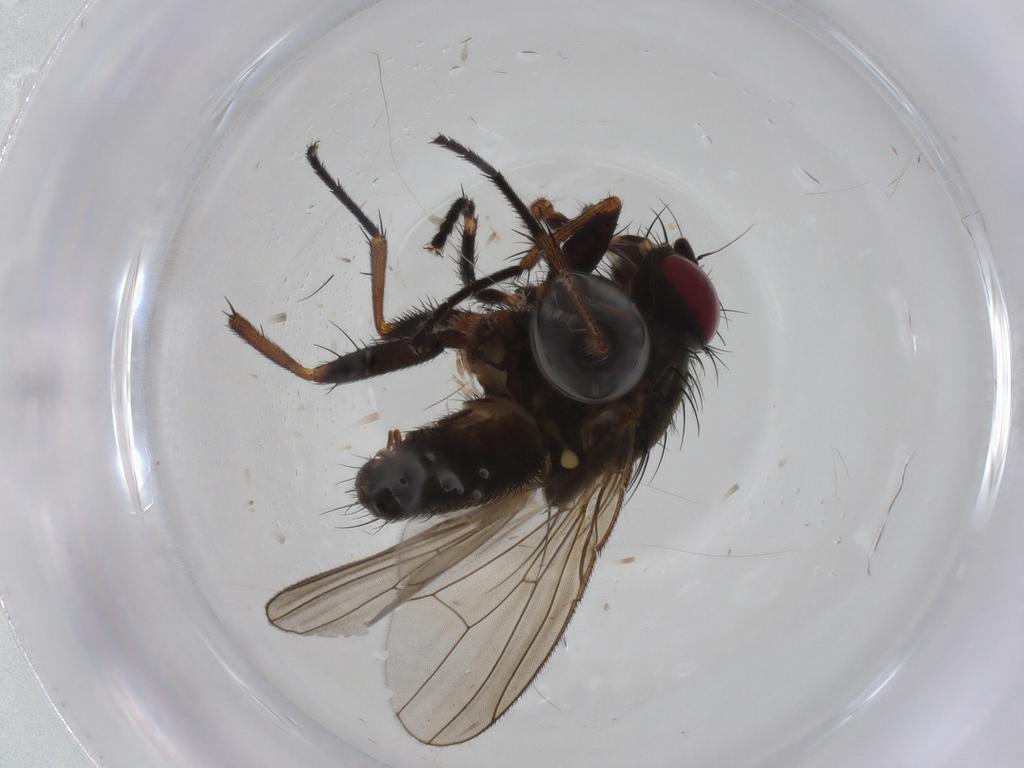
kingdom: Animalia
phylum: Arthropoda
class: Insecta
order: Diptera
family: Fanniidae
